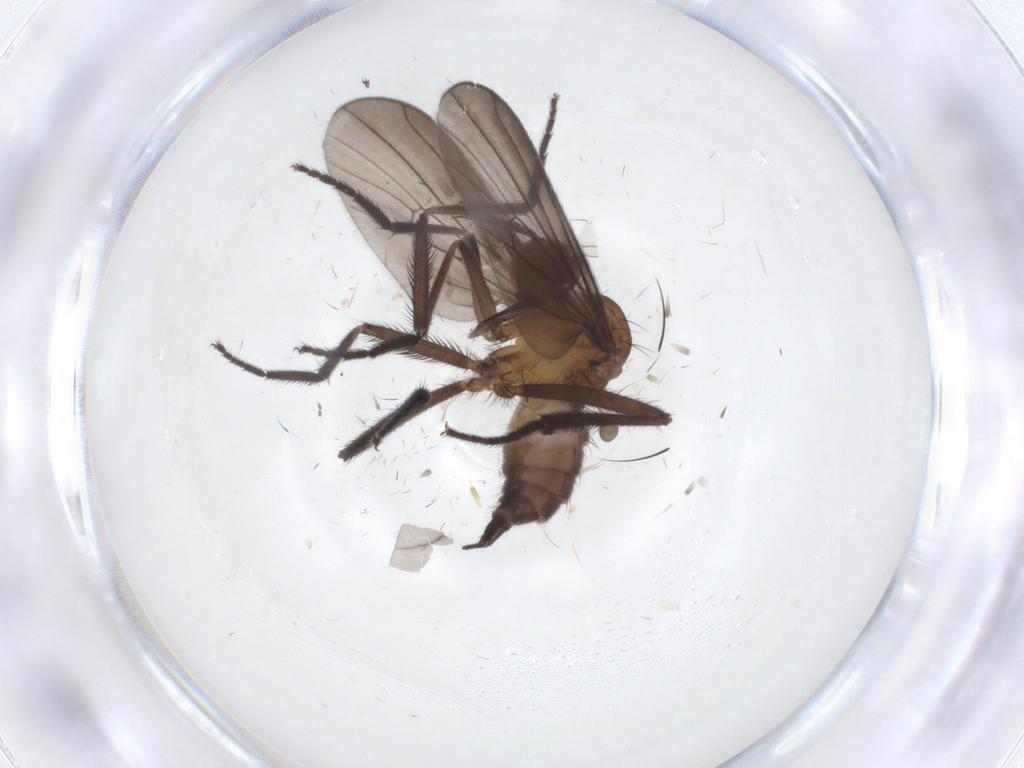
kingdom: Animalia
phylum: Arthropoda
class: Insecta
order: Diptera
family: Empididae
